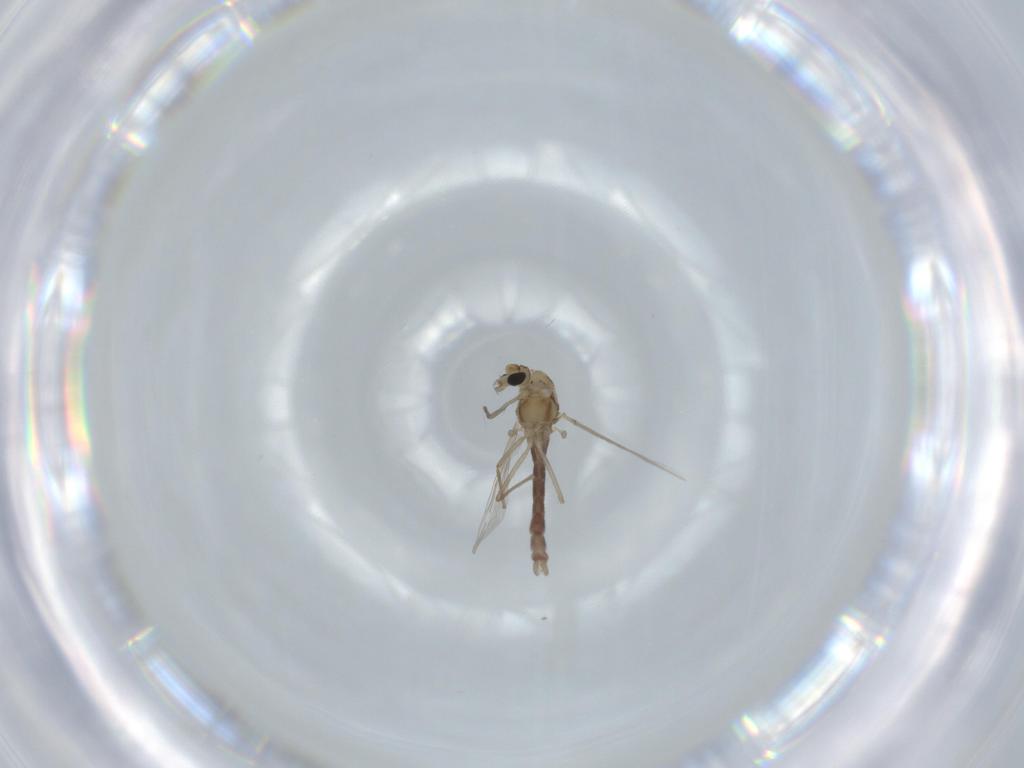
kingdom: Animalia
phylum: Arthropoda
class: Insecta
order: Diptera
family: Chironomidae
